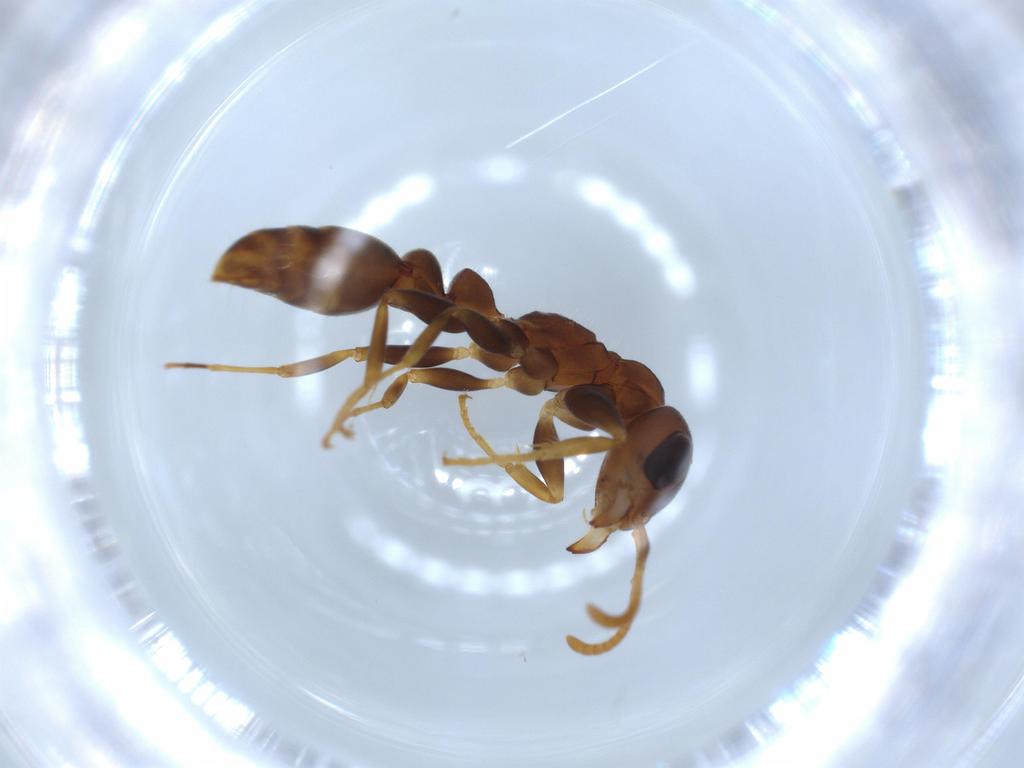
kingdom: Animalia
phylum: Arthropoda
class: Insecta
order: Hymenoptera
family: Formicidae
